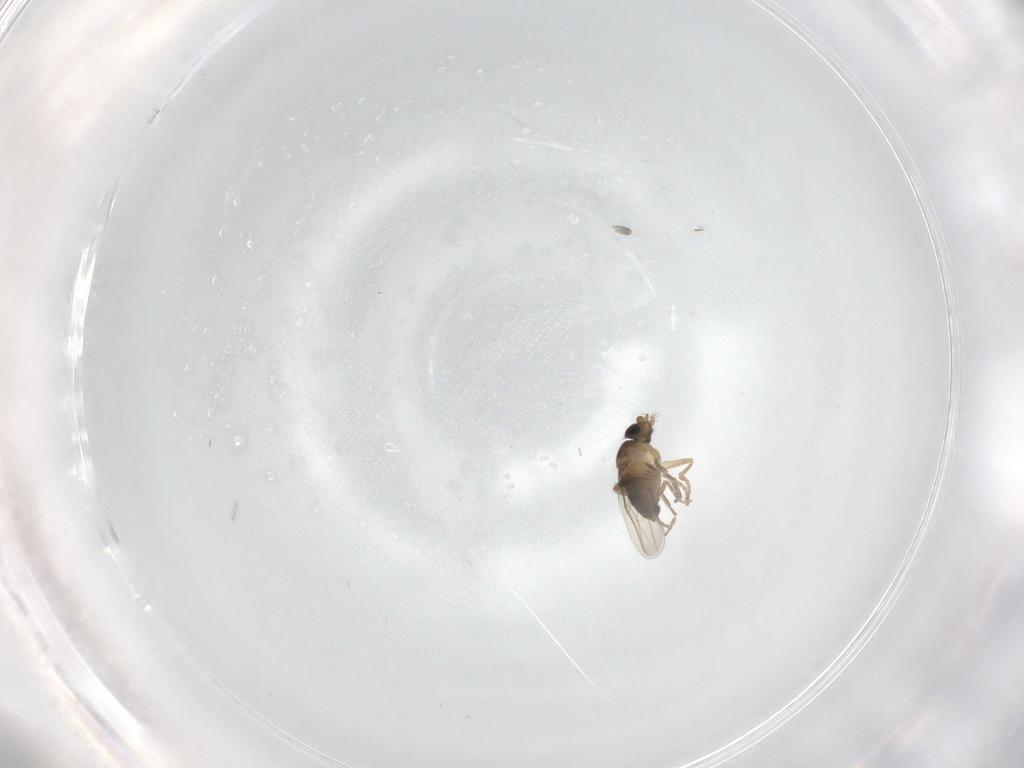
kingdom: Animalia
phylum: Arthropoda
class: Insecta
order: Diptera
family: Phoridae
